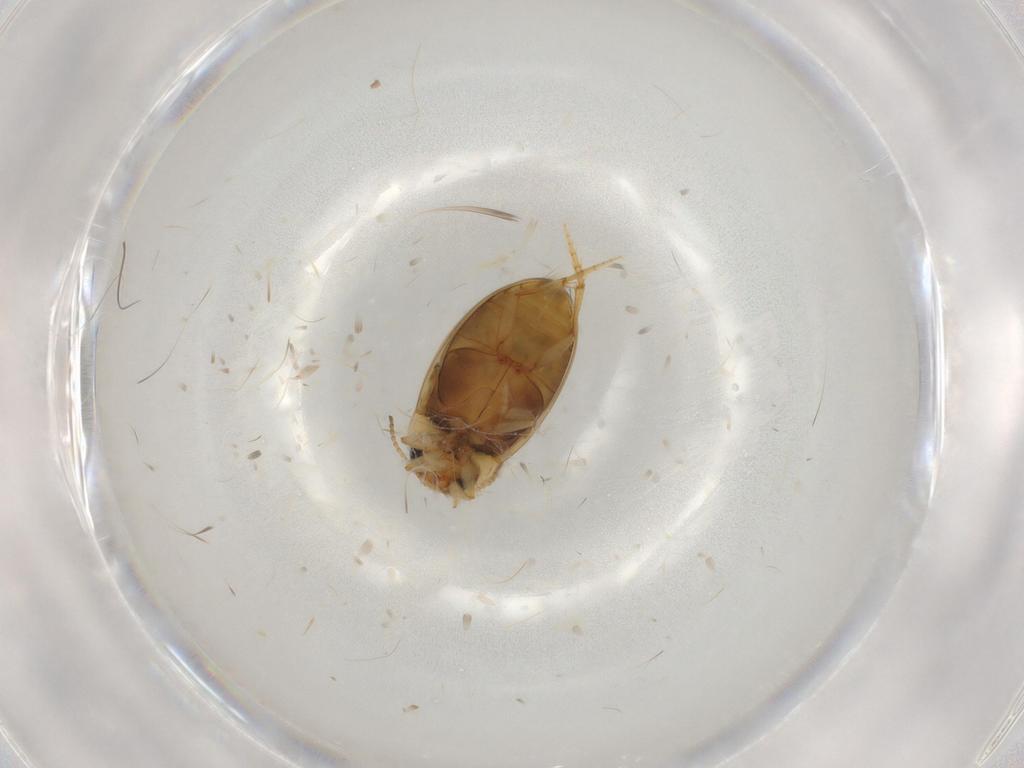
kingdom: Animalia
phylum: Arthropoda
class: Insecta
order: Coleoptera
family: Dytiscidae
